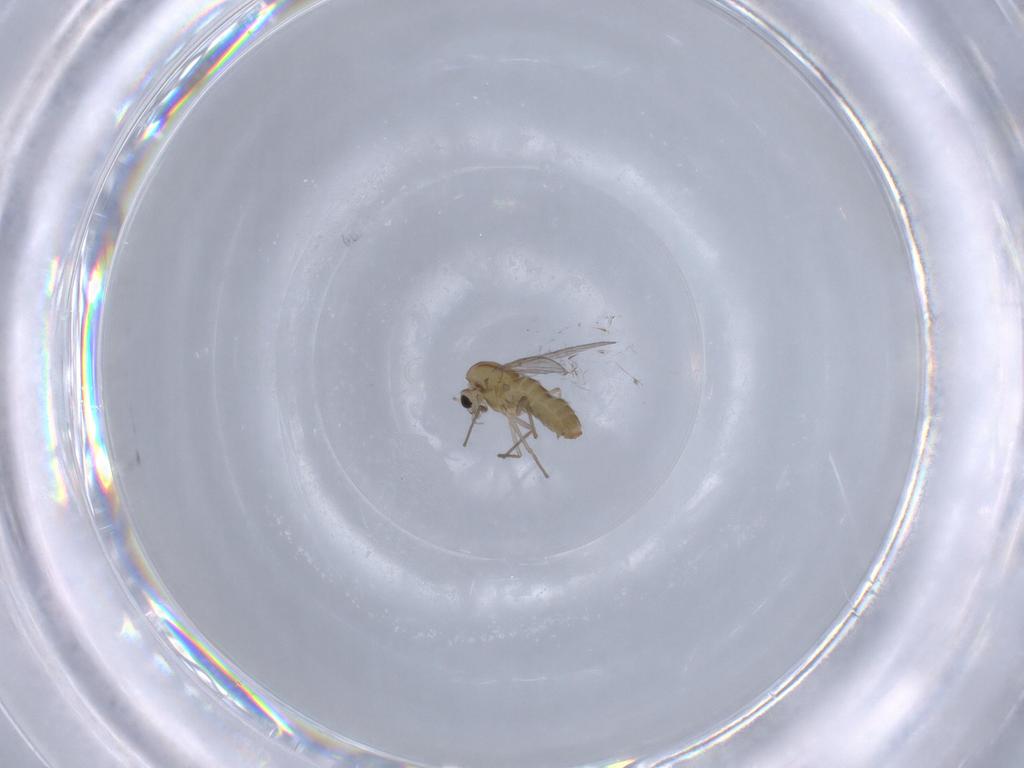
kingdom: Animalia
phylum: Arthropoda
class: Insecta
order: Diptera
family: Chironomidae
